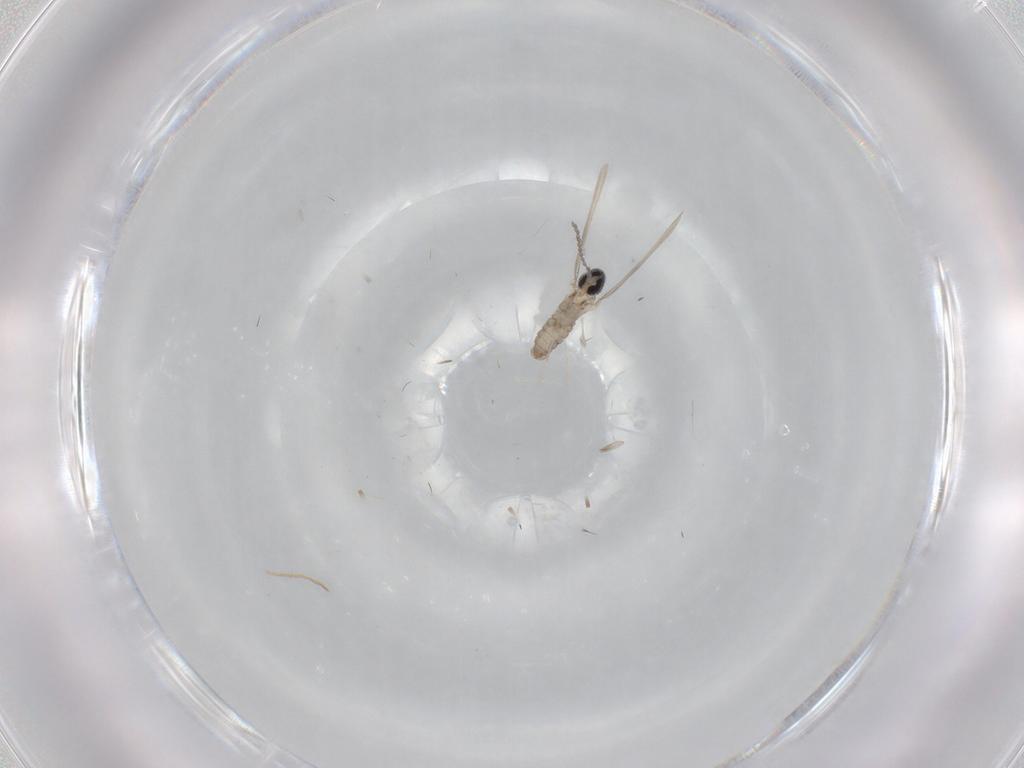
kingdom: Animalia
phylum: Arthropoda
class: Insecta
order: Diptera
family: Cecidomyiidae
